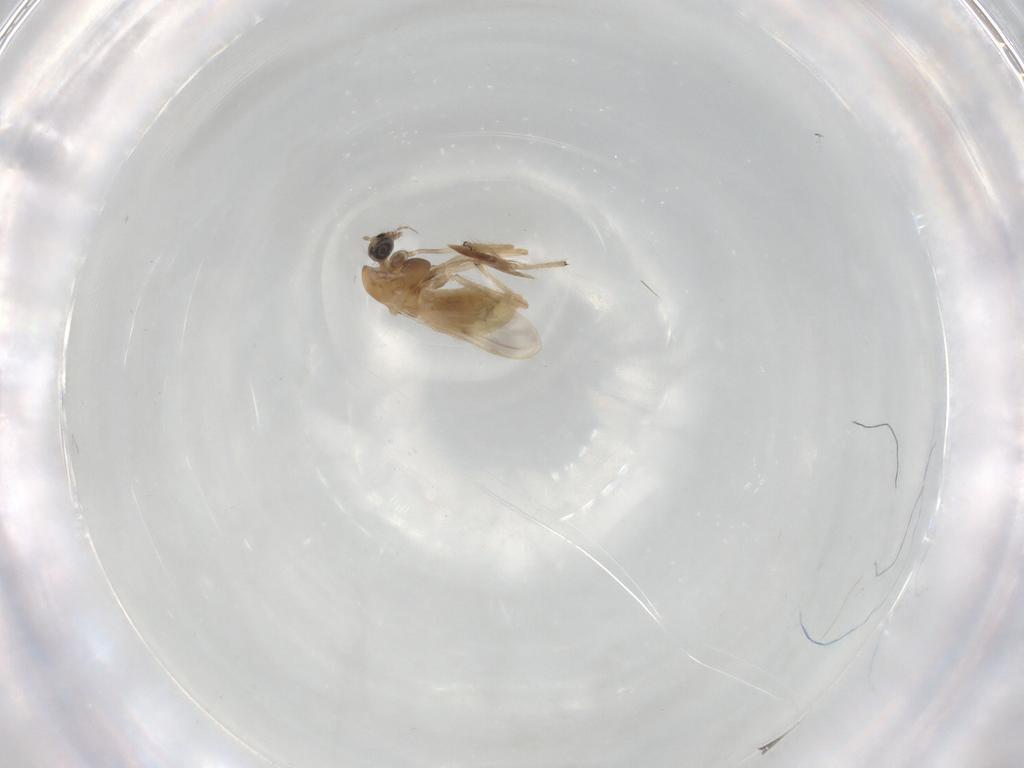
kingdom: Animalia
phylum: Arthropoda
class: Insecta
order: Diptera
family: Chironomidae
